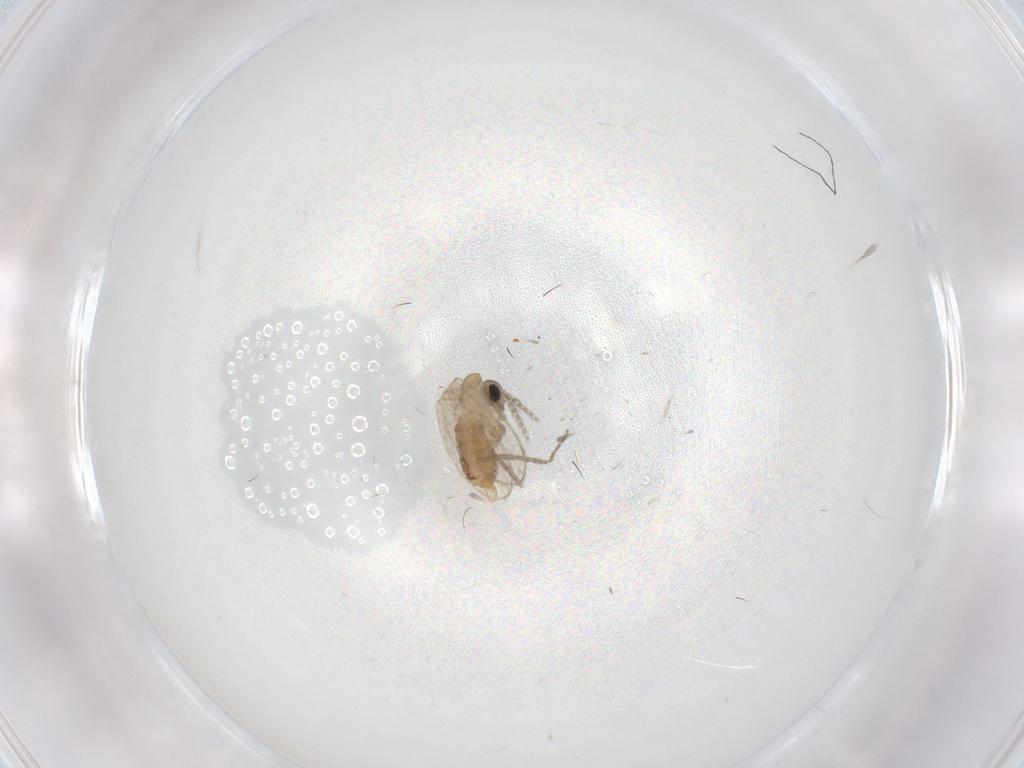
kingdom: Animalia
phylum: Arthropoda
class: Insecta
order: Diptera
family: Psychodidae
